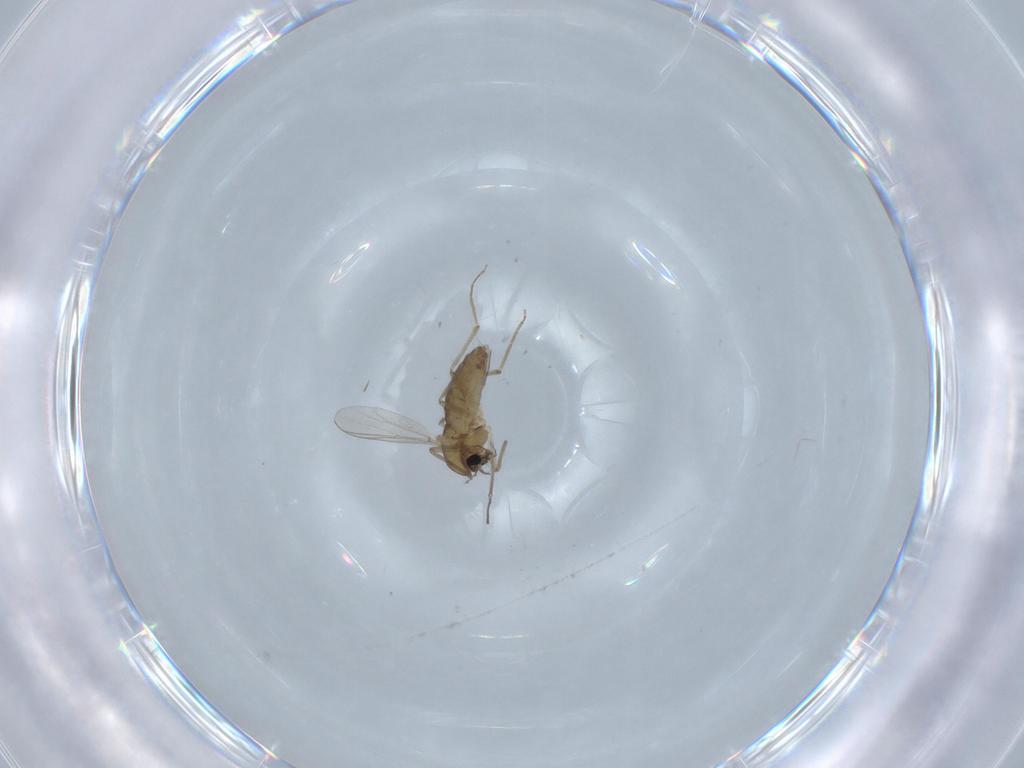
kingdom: Animalia
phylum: Arthropoda
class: Insecta
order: Diptera
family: Chironomidae
